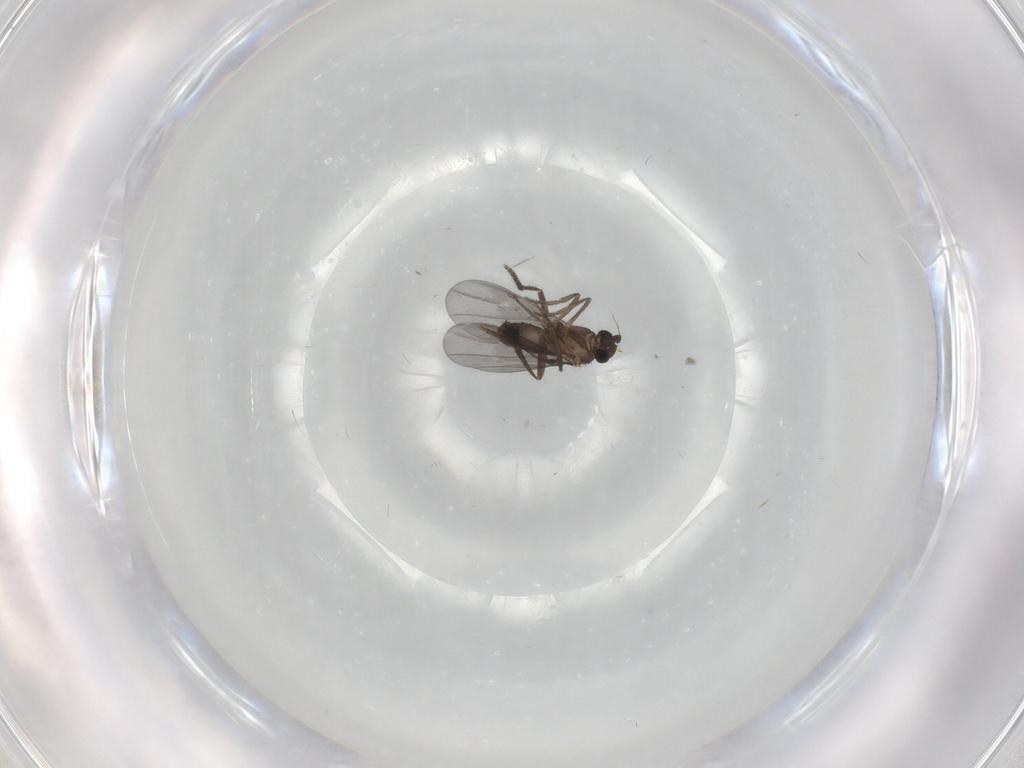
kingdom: Animalia
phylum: Arthropoda
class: Insecta
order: Diptera
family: Phoridae
